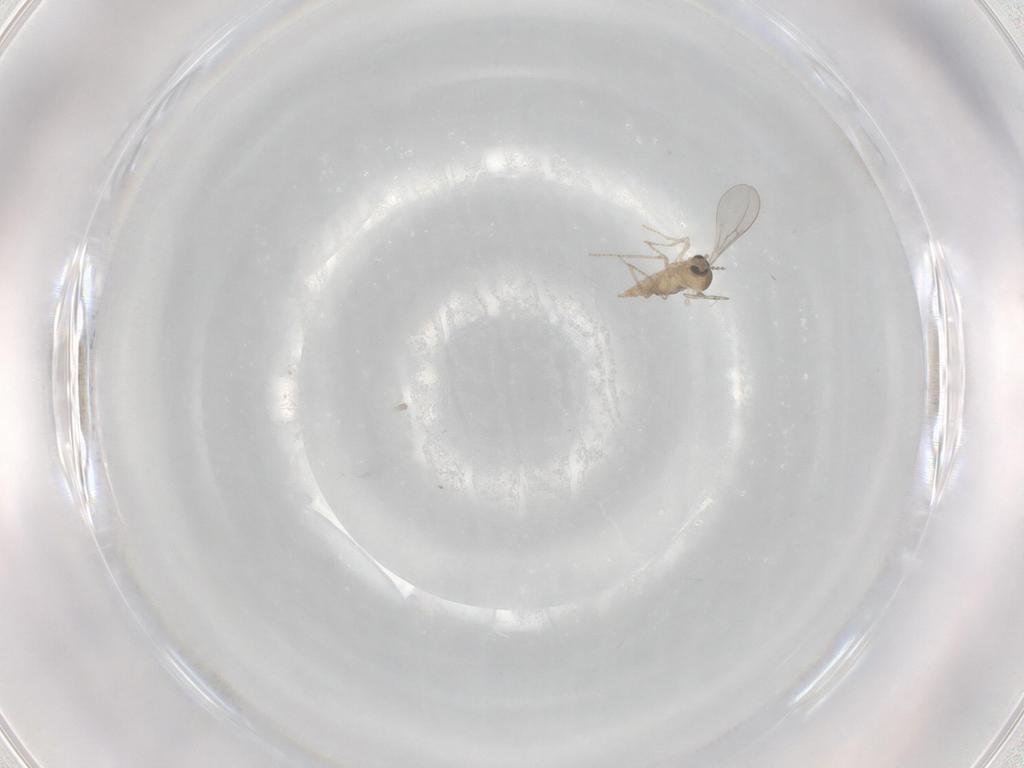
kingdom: Animalia
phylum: Arthropoda
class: Insecta
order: Diptera
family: Cecidomyiidae
